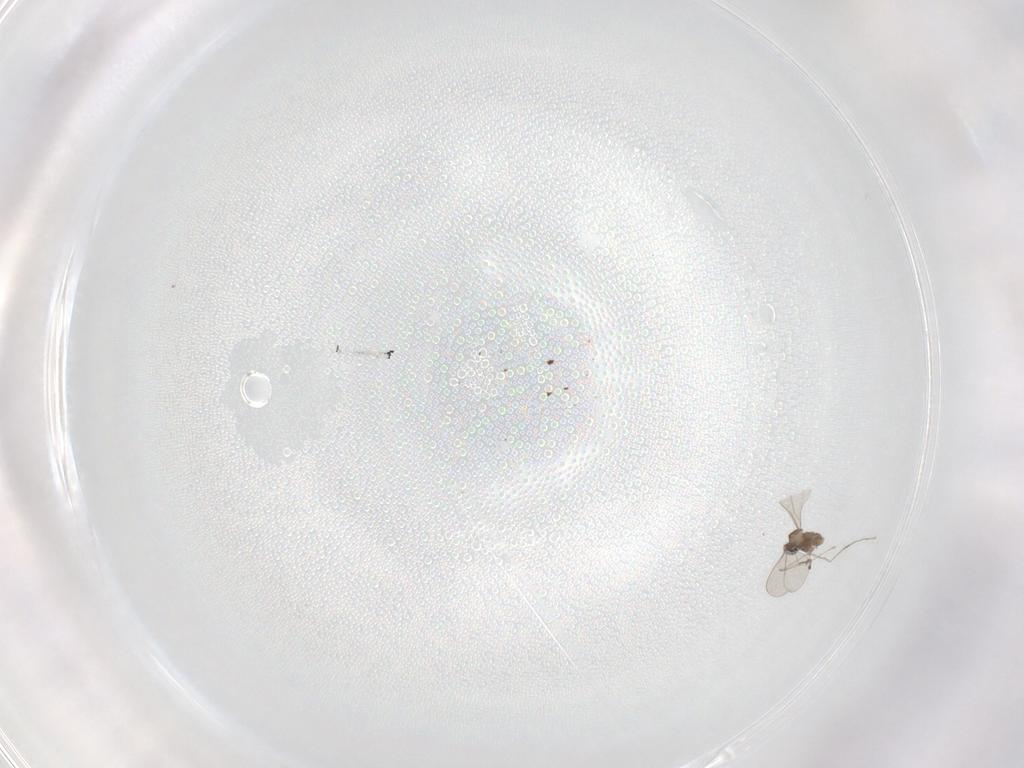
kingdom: Animalia
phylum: Arthropoda
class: Insecta
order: Diptera
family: Cecidomyiidae
